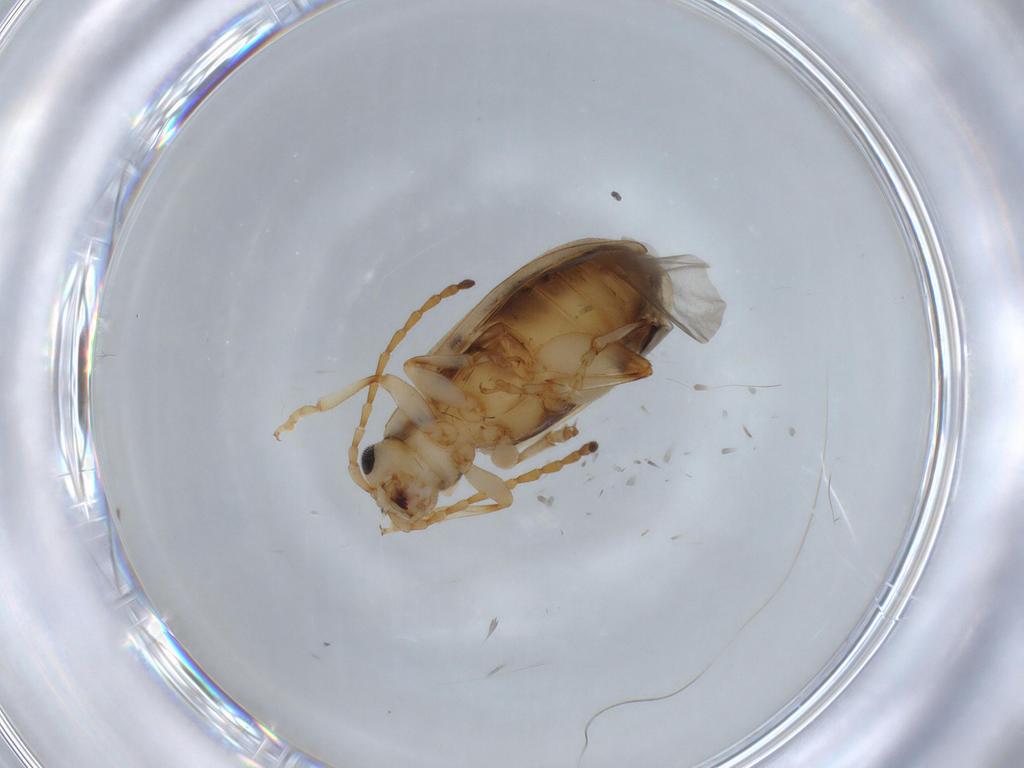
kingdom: Animalia
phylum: Arthropoda
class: Insecta
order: Coleoptera
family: Chrysomelidae
